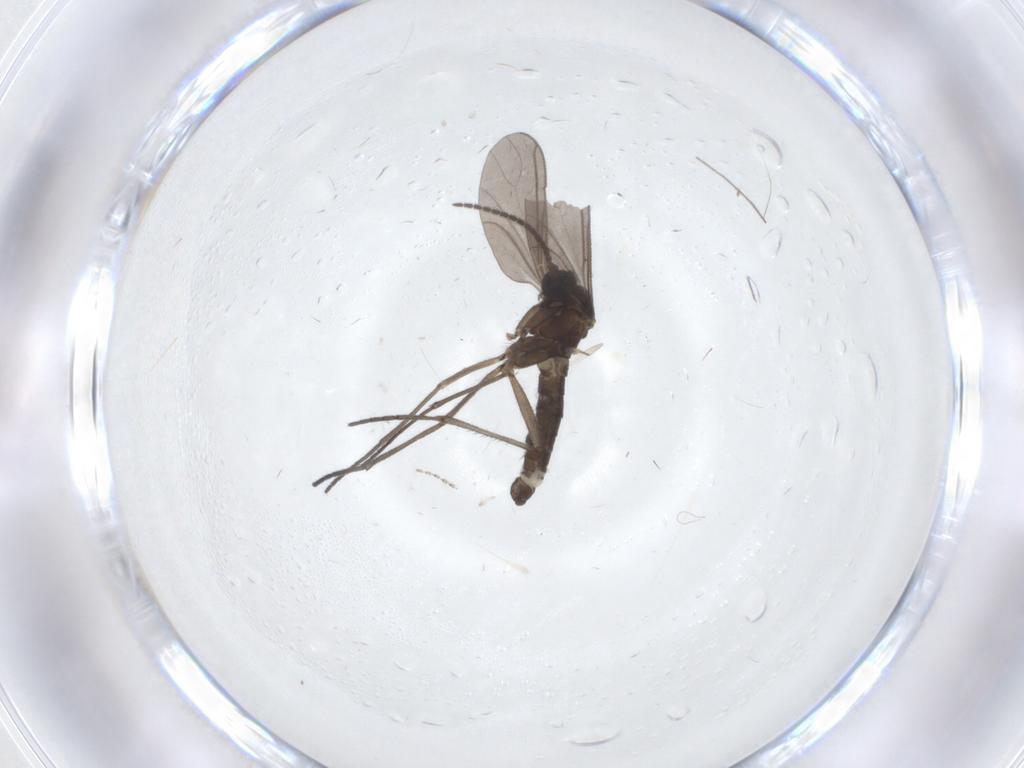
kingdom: Animalia
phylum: Arthropoda
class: Insecta
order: Diptera
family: Sciaridae
